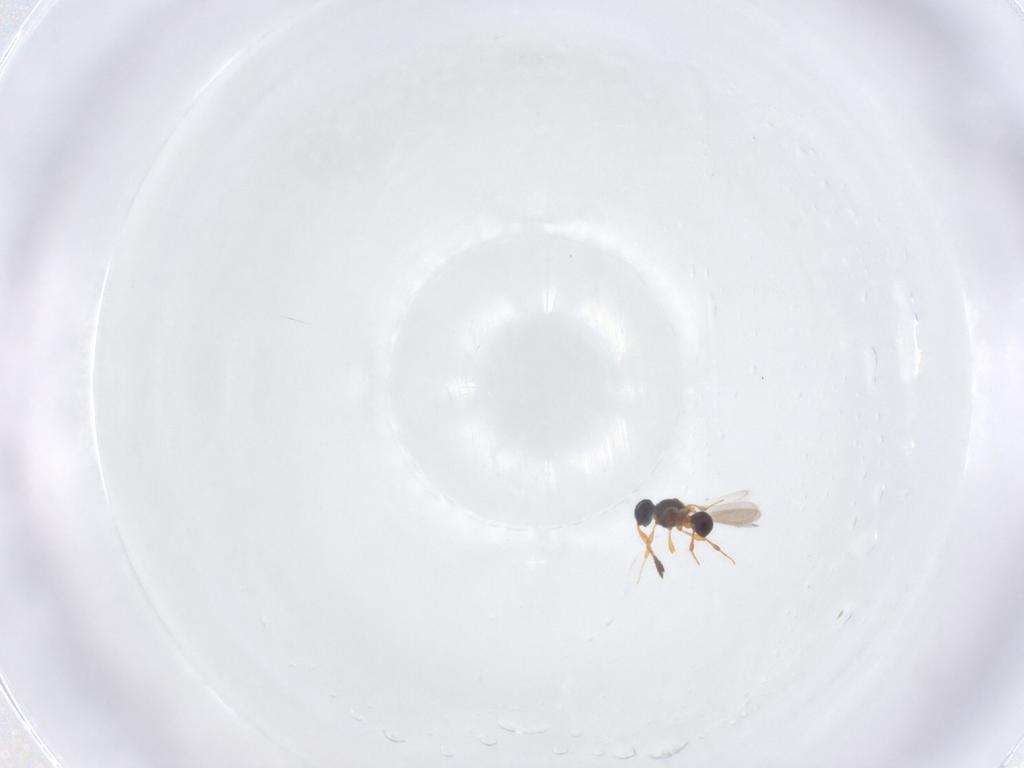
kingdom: Animalia
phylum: Arthropoda
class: Insecta
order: Hymenoptera
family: Platygastridae
